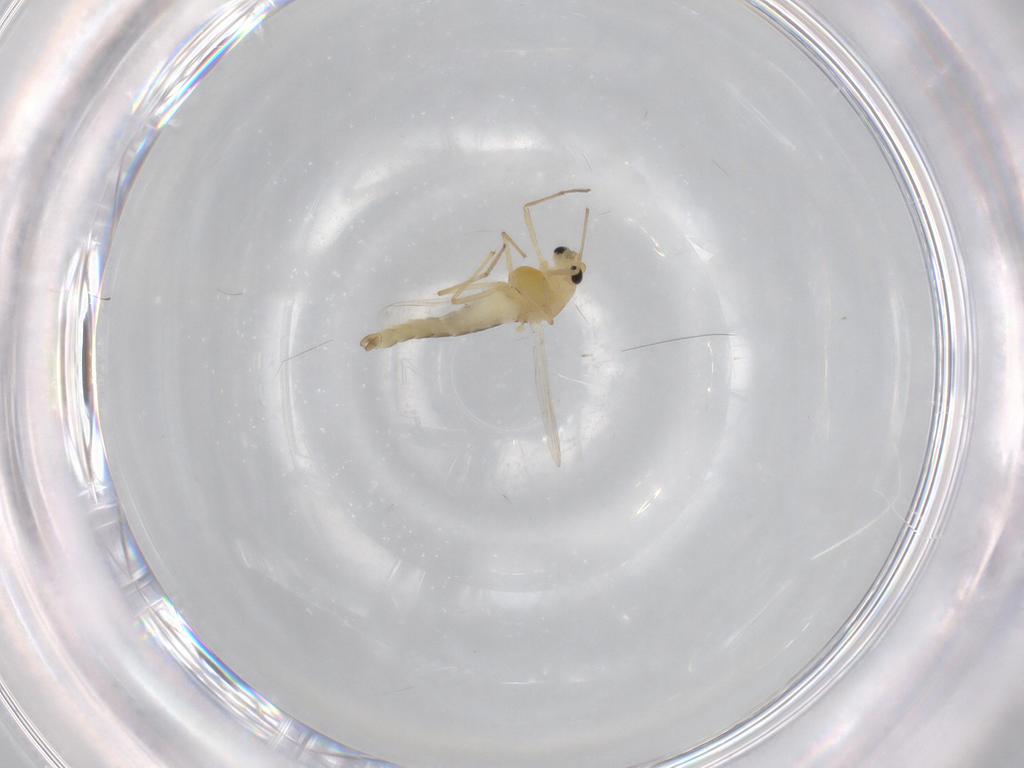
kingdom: Animalia
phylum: Arthropoda
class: Insecta
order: Diptera
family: Chironomidae
